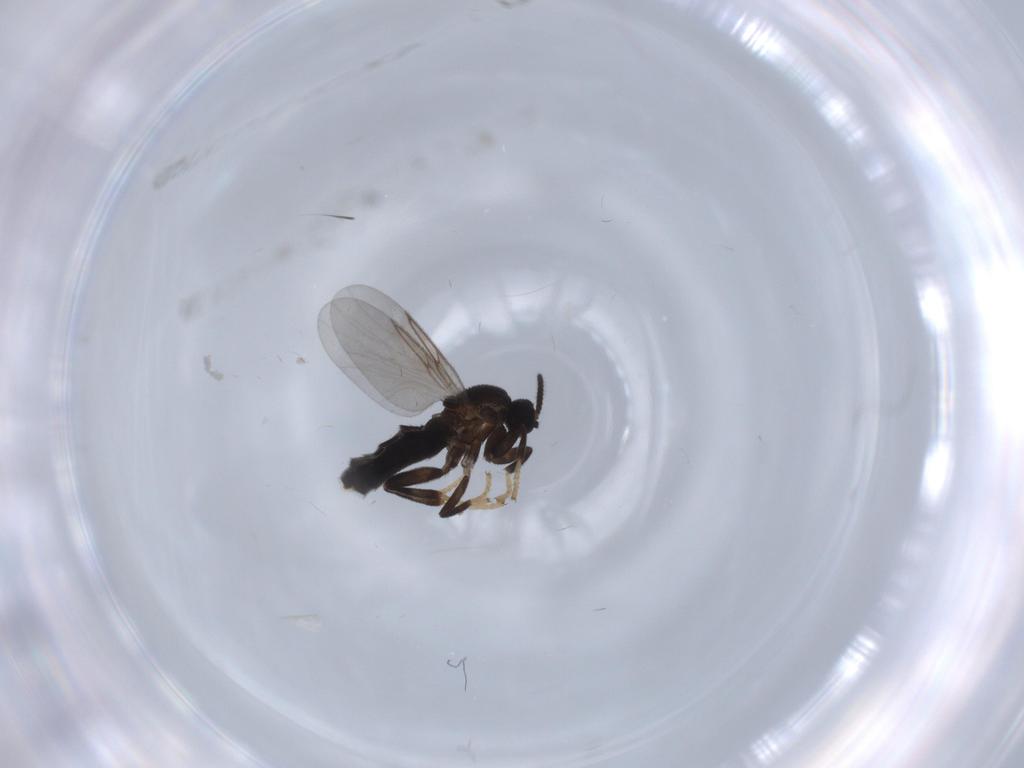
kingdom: Animalia
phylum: Arthropoda
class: Insecta
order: Diptera
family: Scatopsidae
